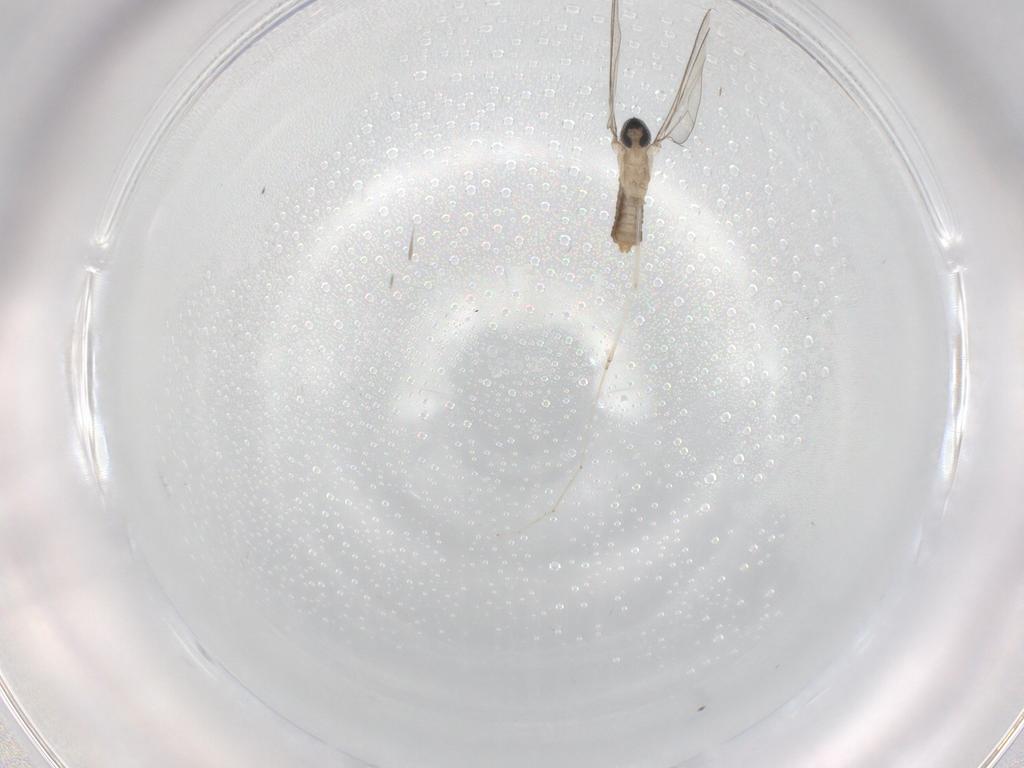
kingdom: Animalia
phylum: Arthropoda
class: Insecta
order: Diptera
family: Cecidomyiidae
